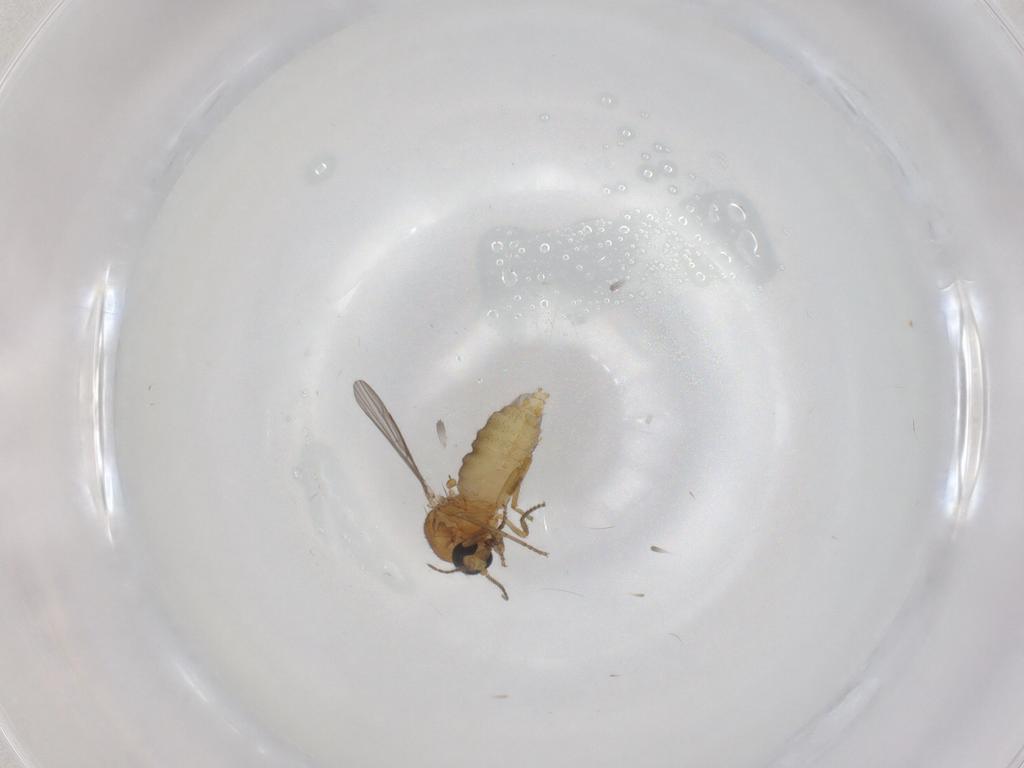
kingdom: Animalia
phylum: Arthropoda
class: Insecta
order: Diptera
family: Ceratopogonidae
